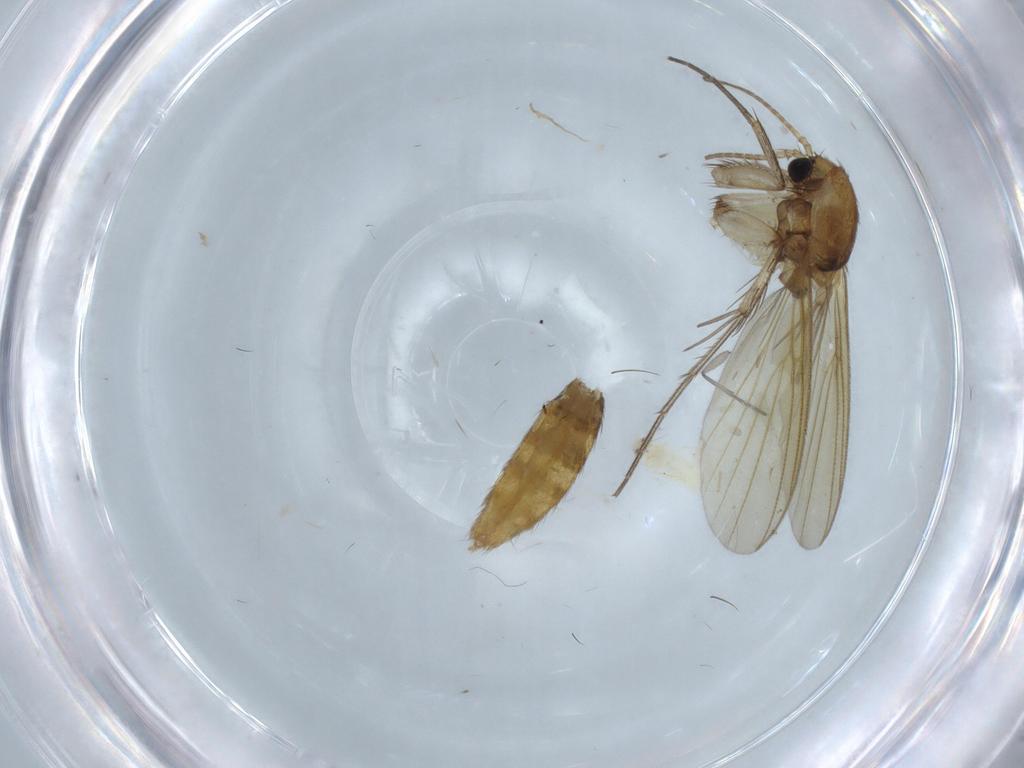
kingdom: Animalia
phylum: Arthropoda
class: Insecta
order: Diptera
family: Mycetophilidae
